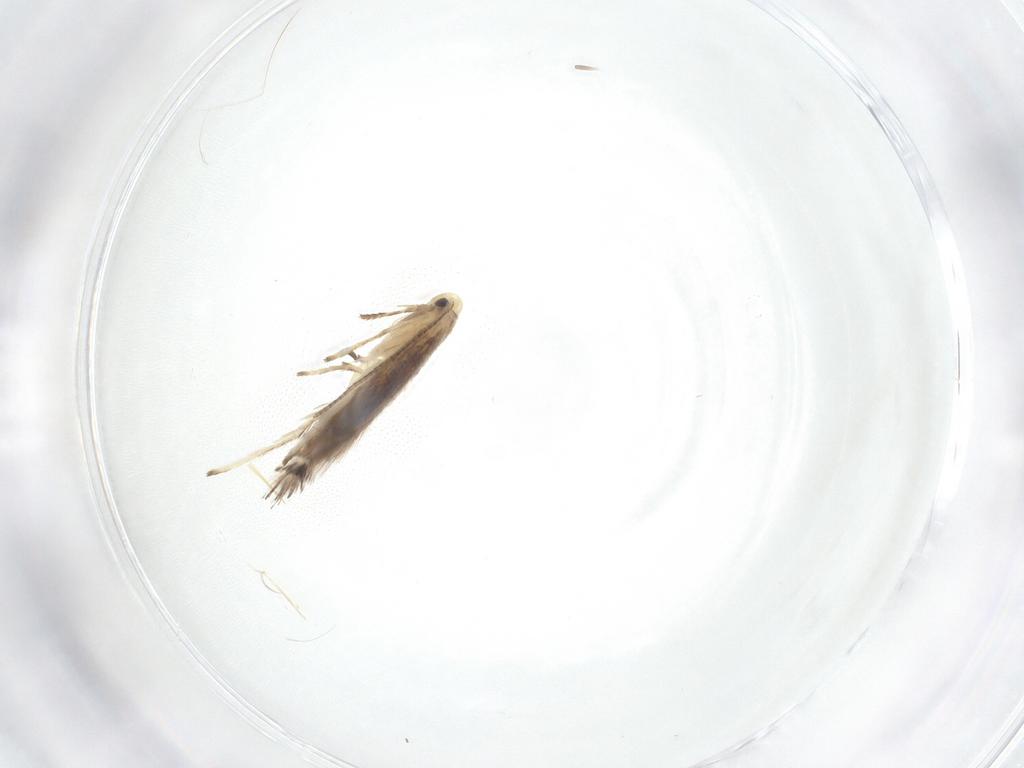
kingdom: Animalia
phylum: Arthropoda
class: Insecta
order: Lepidoptera
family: Gracillariidae
